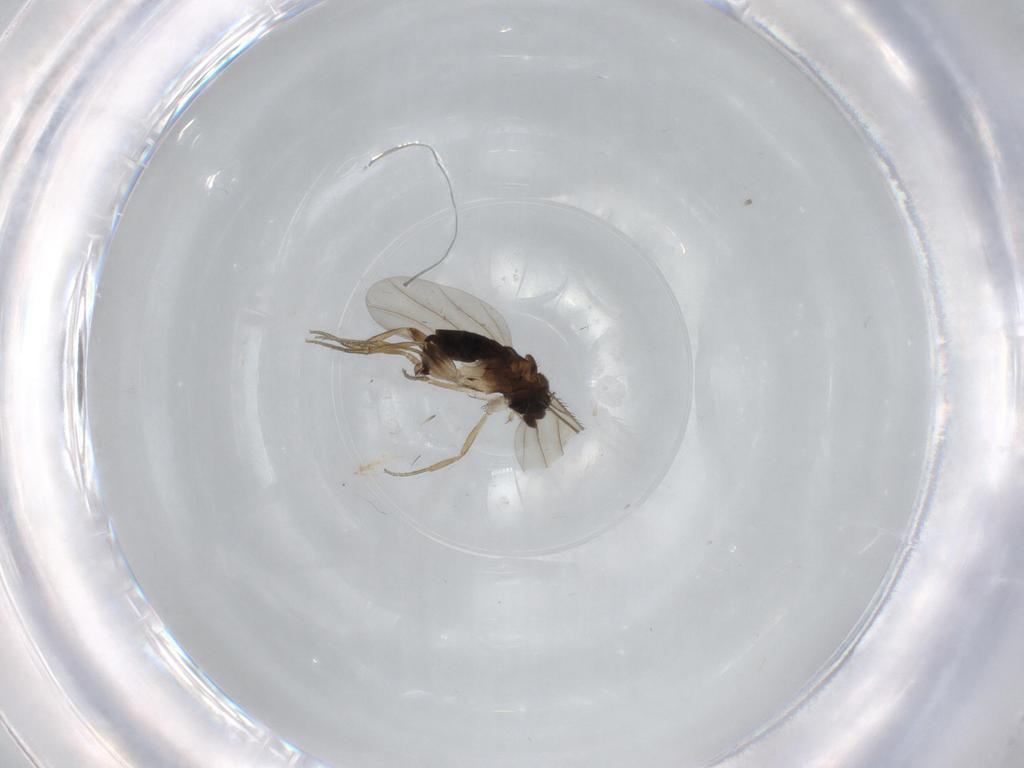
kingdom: Animalia
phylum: Arthropoda
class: Insecta
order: Diptera
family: Phoridae
